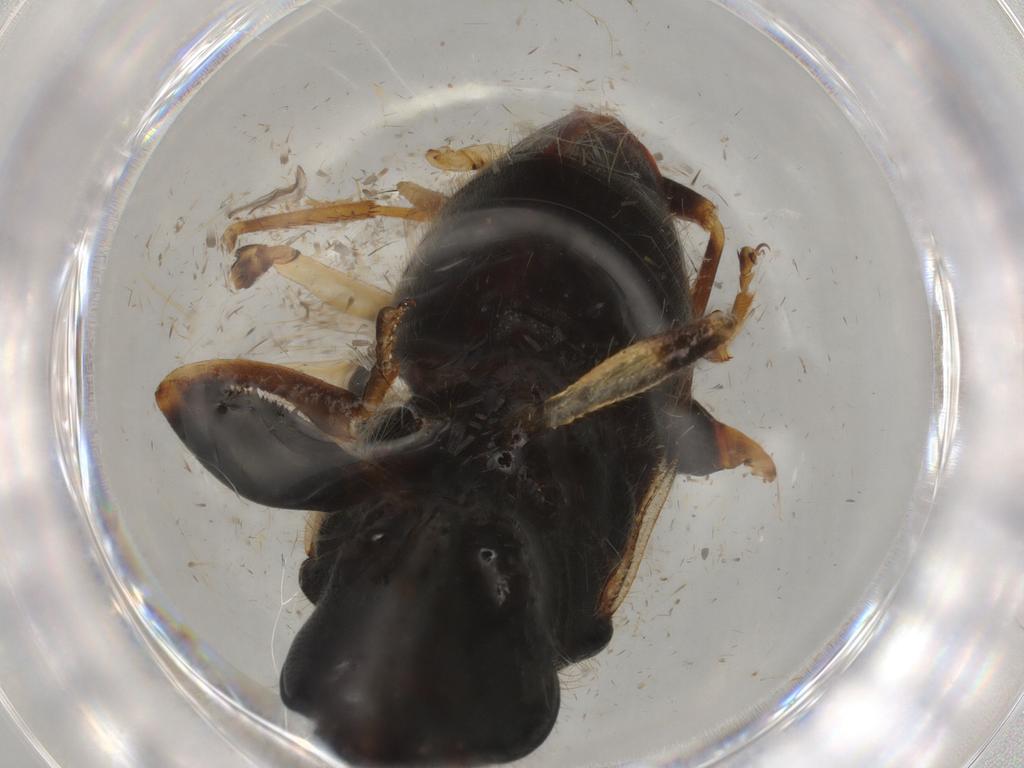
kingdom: Animalia
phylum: Arthropoda
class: Insecta
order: Hemiptera
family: Rhyparochromidae
